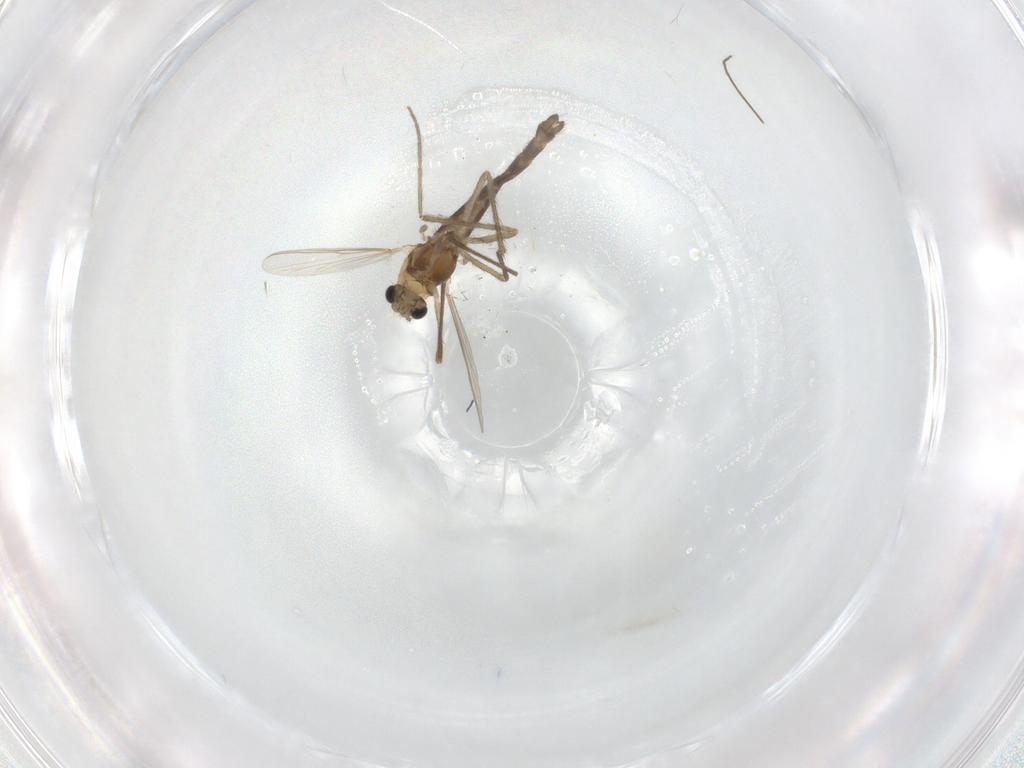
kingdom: Animalia
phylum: Arthropoda
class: Insecta
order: Diptera
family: Chironomidae
